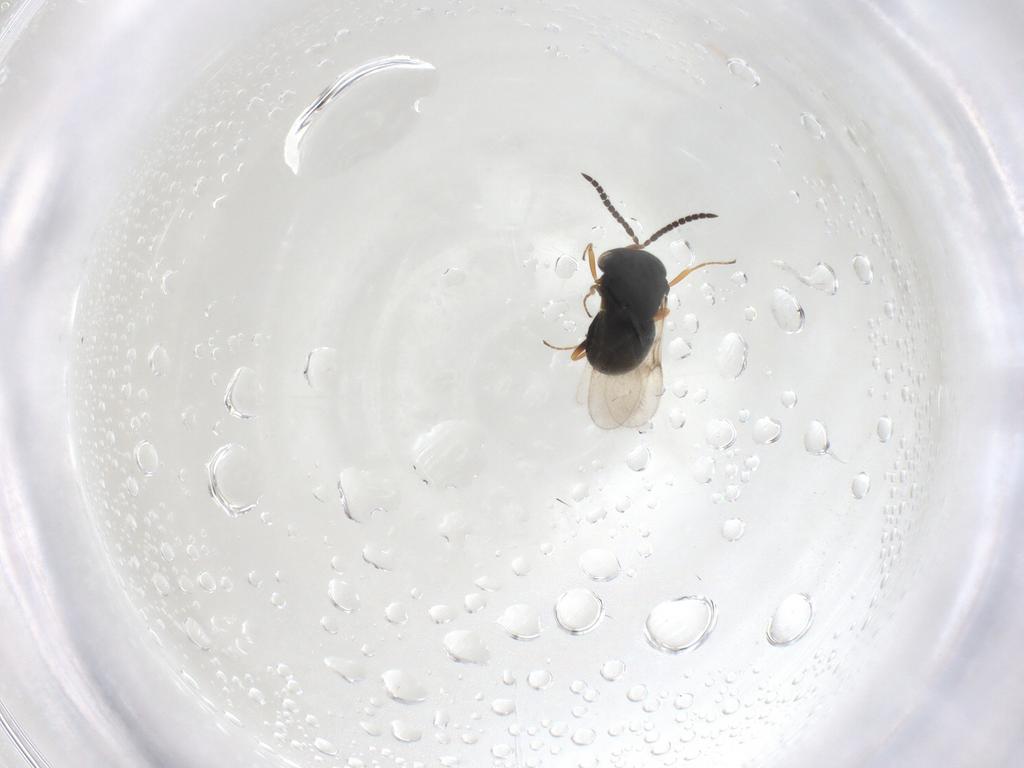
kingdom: Animalia
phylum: Arthropoda
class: Insecta
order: Hymenoptera
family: Scelionidae
